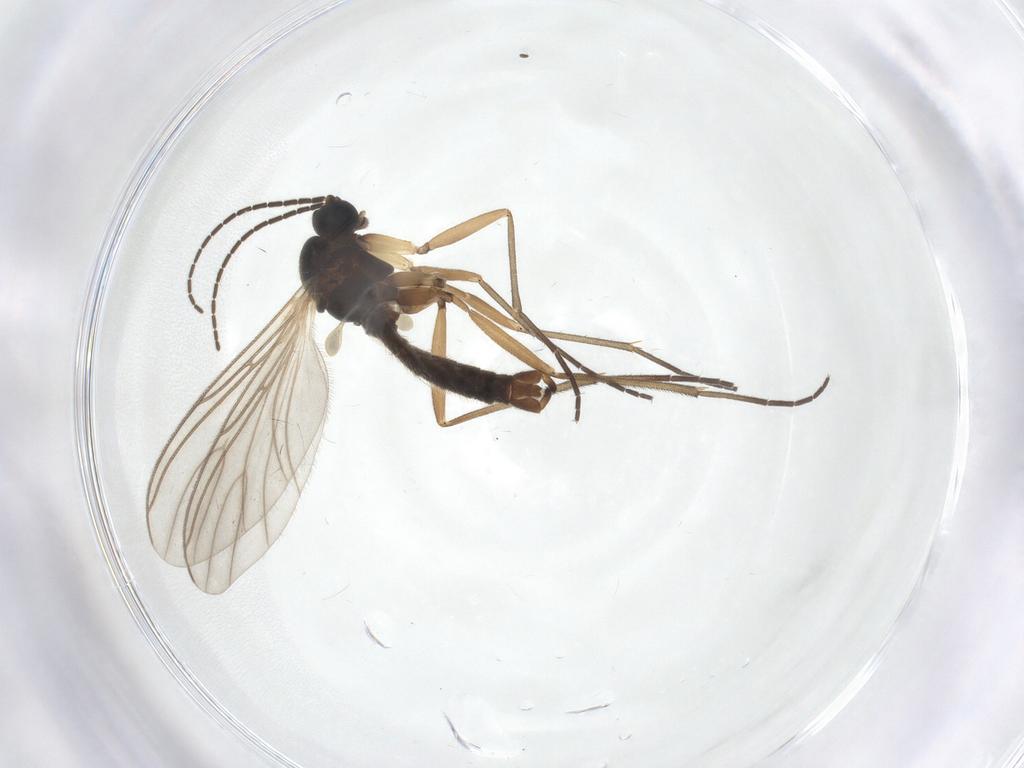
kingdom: Animalia
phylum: Arthropoda
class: Insecta
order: Diptera
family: Sciaridae
